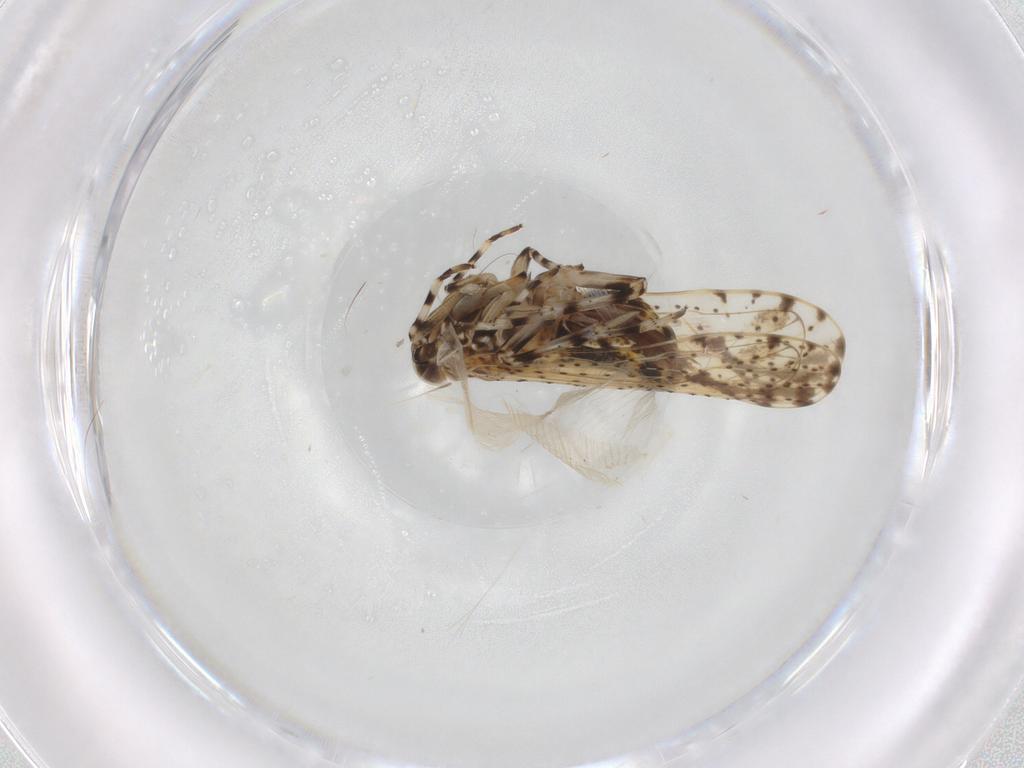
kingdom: Animalia
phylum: Arthropoda
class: Insecta
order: Hemiptera
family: Delphacidae
